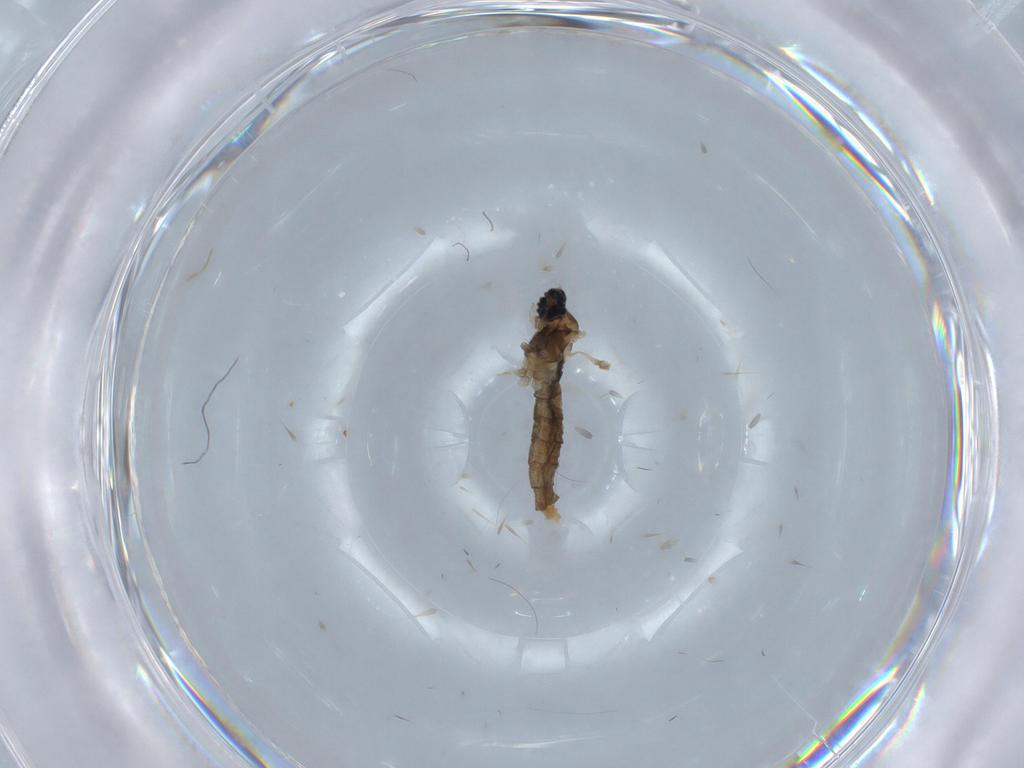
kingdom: Animalia
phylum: Arthropoda
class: Insecta
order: Diptera
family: Cecidomyiidae
